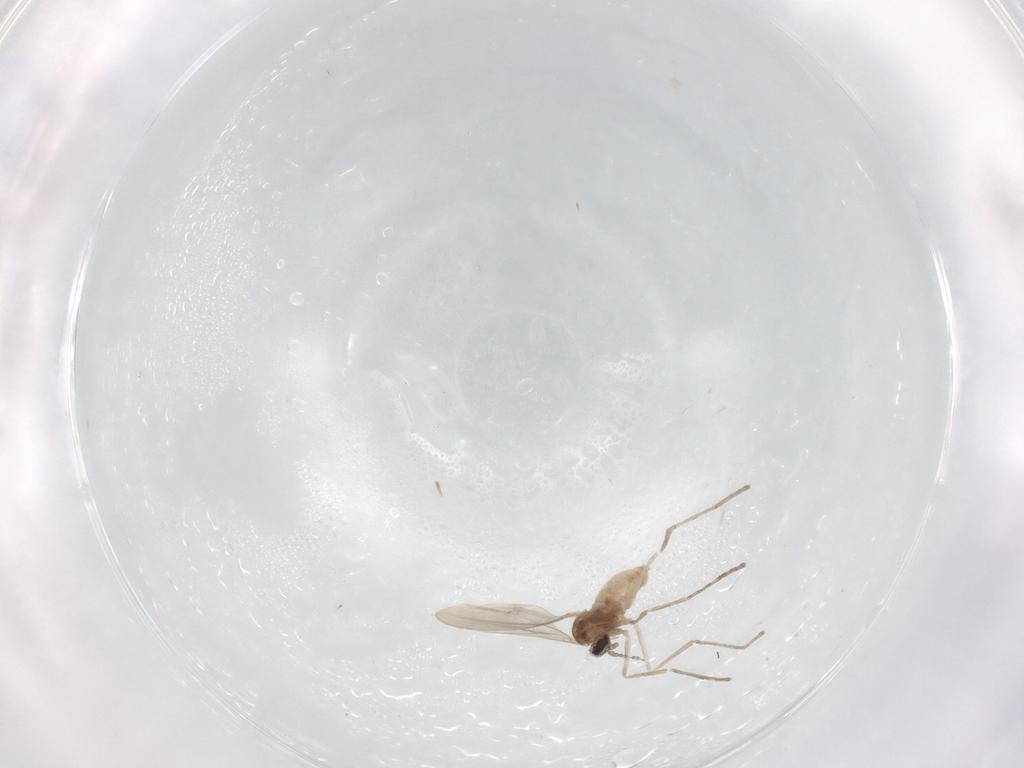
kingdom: Animalia
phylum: Arthropoda
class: Insecta
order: Diptera
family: Cecidomyiidae
